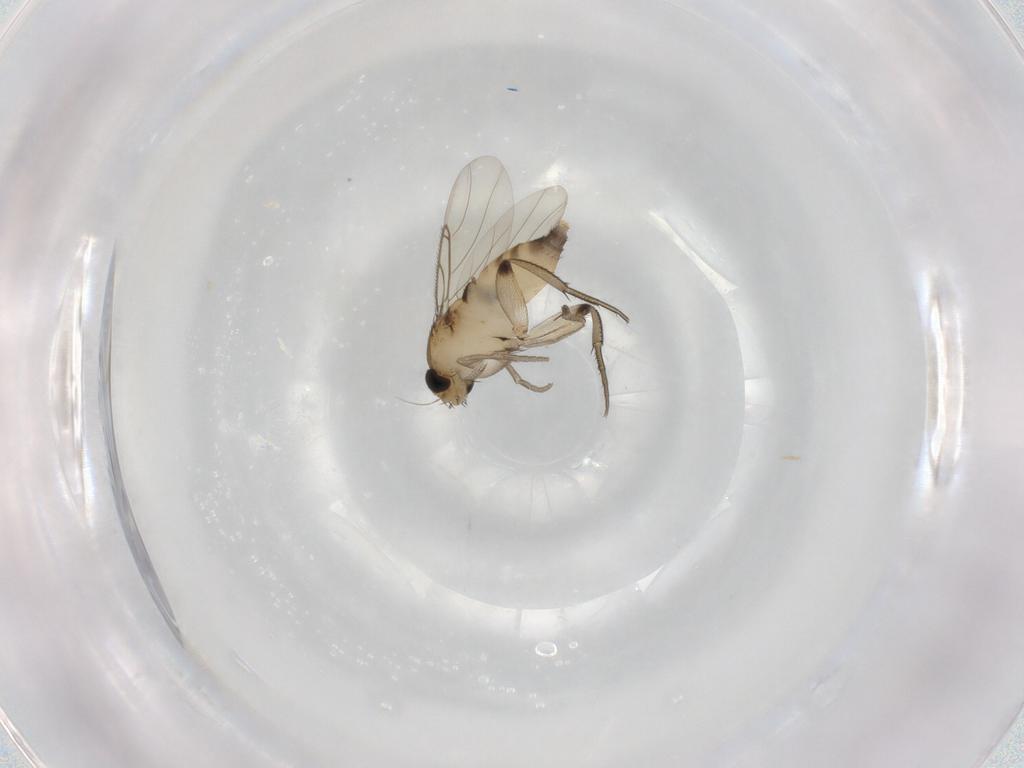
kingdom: Animalia
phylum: Arthropoda
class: Insecta
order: Diptera
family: Phoridae
